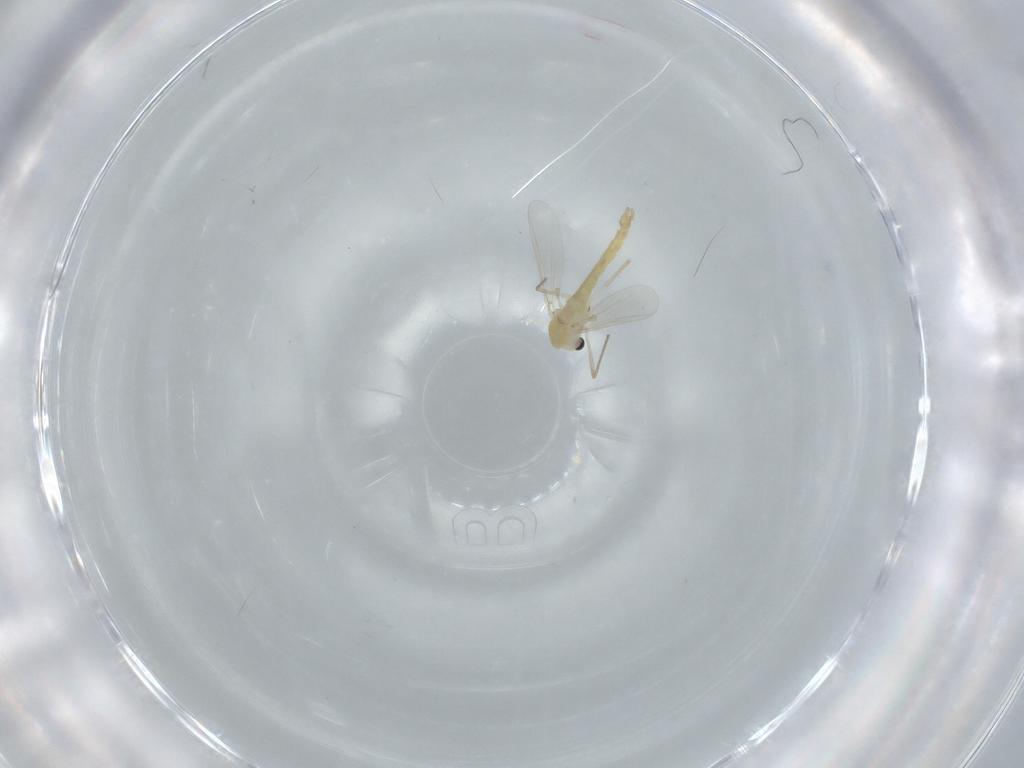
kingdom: Animalia
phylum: Arthropoda
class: Insecta
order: Diptera
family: Chironomidae
